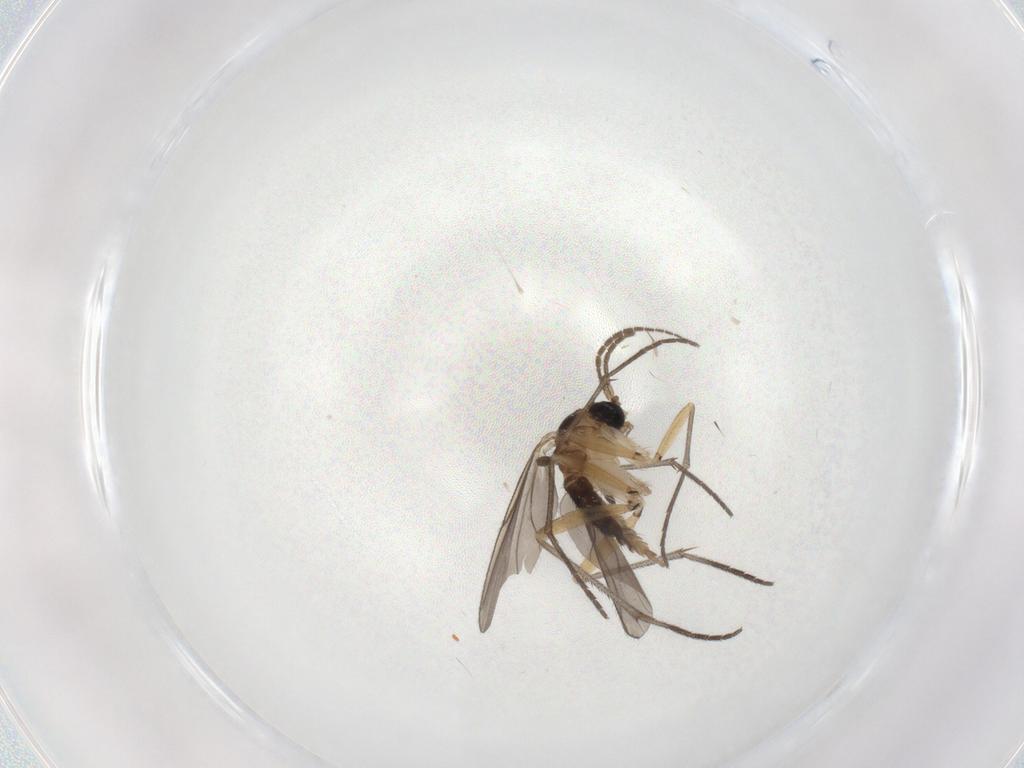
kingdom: Animalia
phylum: Arthropoda
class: Insecta
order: Diptera
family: Sciaridae
